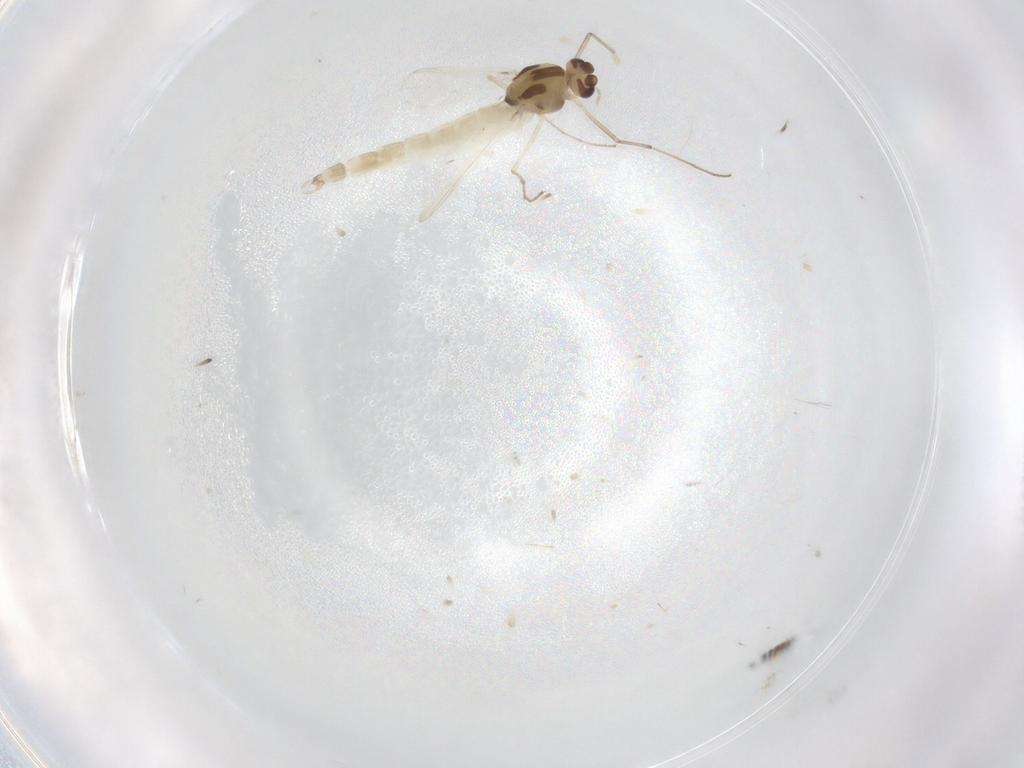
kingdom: Animalia
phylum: Arthropoda
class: Insecta
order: Diptera
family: Chironomidae
